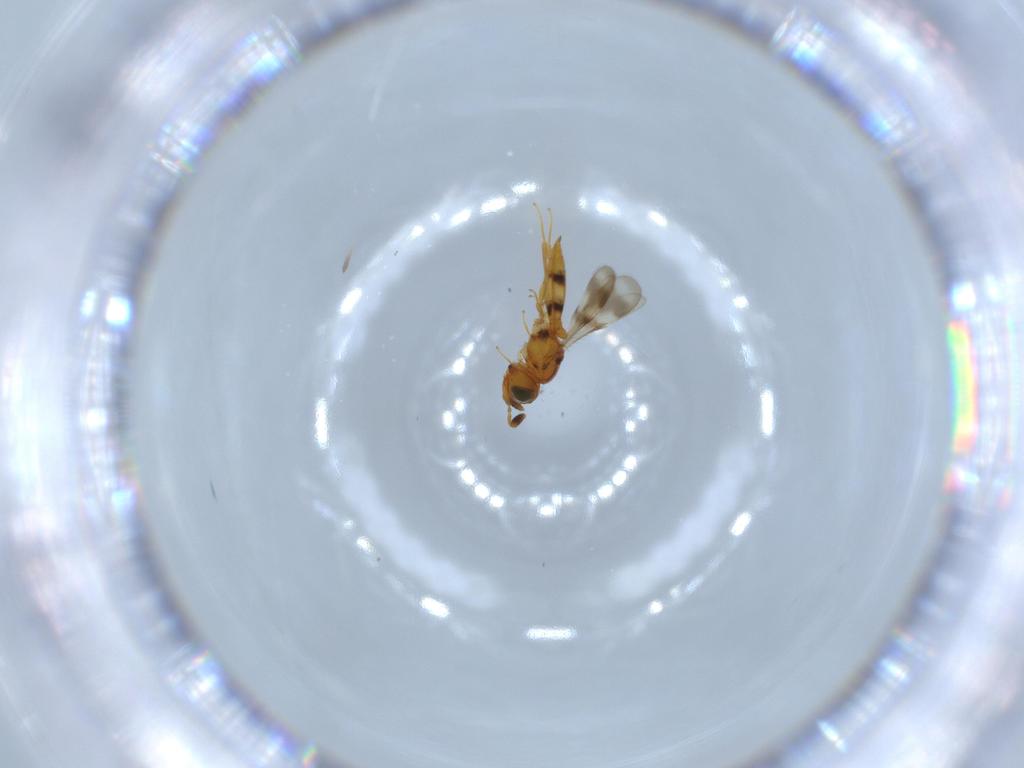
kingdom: Animalia
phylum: Arthropoda
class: Insecta
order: Hymenoptera
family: Scelionidae
